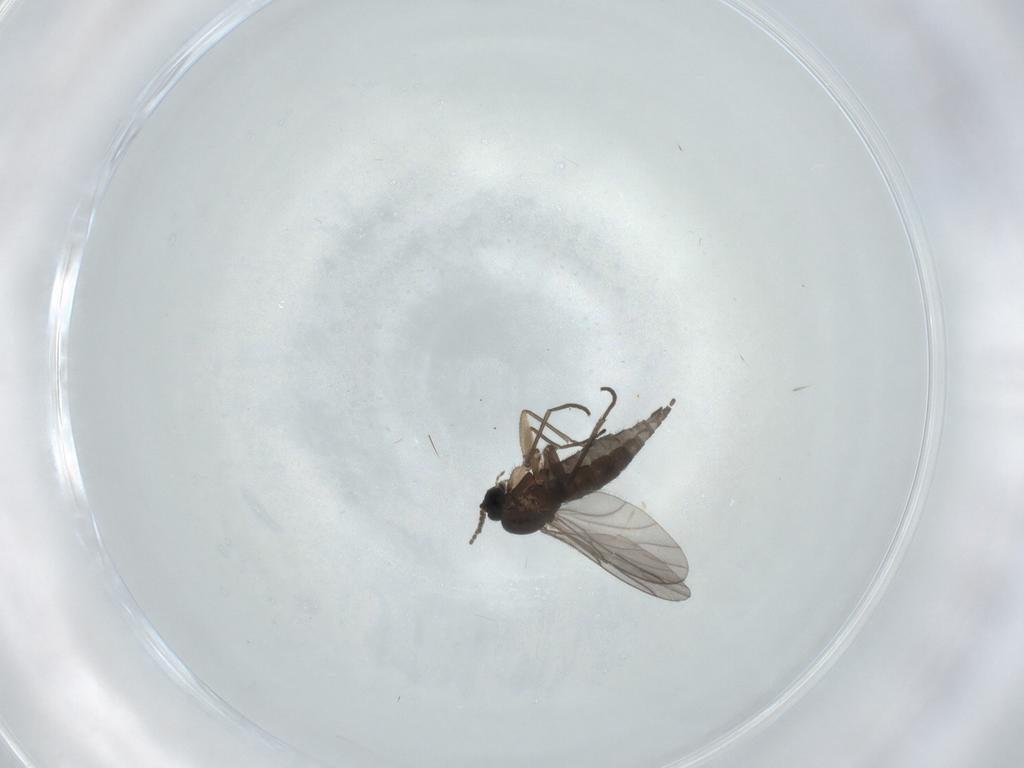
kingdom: Animalia
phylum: Arthropoda
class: Insecta
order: Diptera
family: Sciaridae
